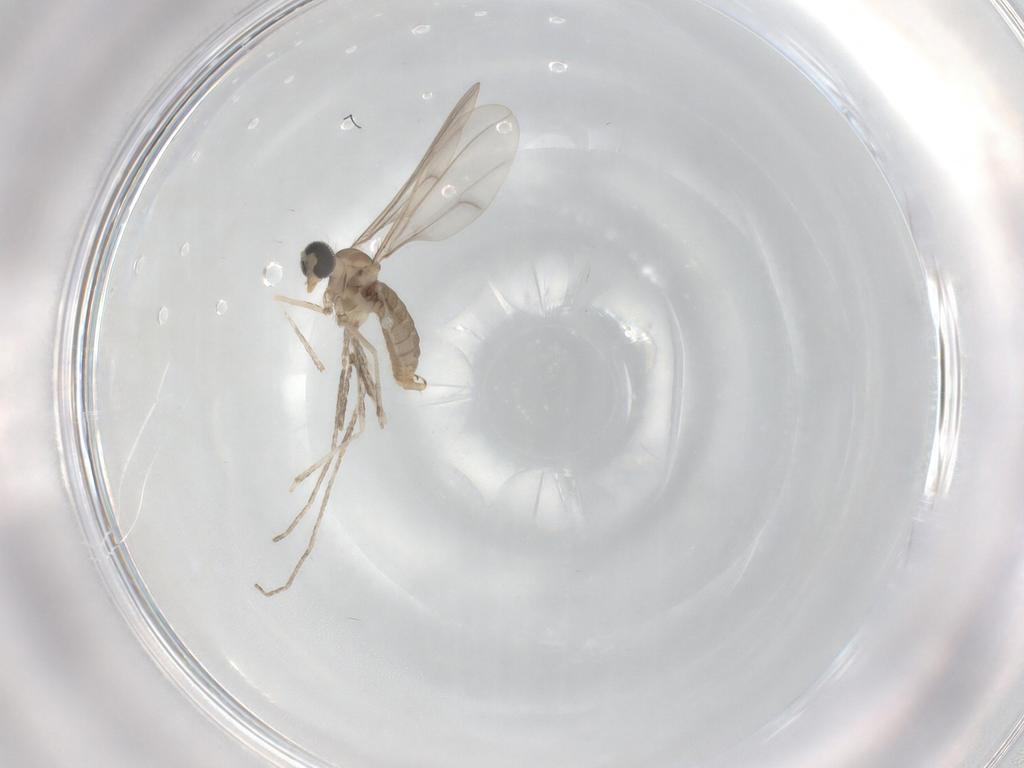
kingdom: Animalia
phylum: Arthropoda
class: Insecta
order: Diptera
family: Cecidomyiidae
